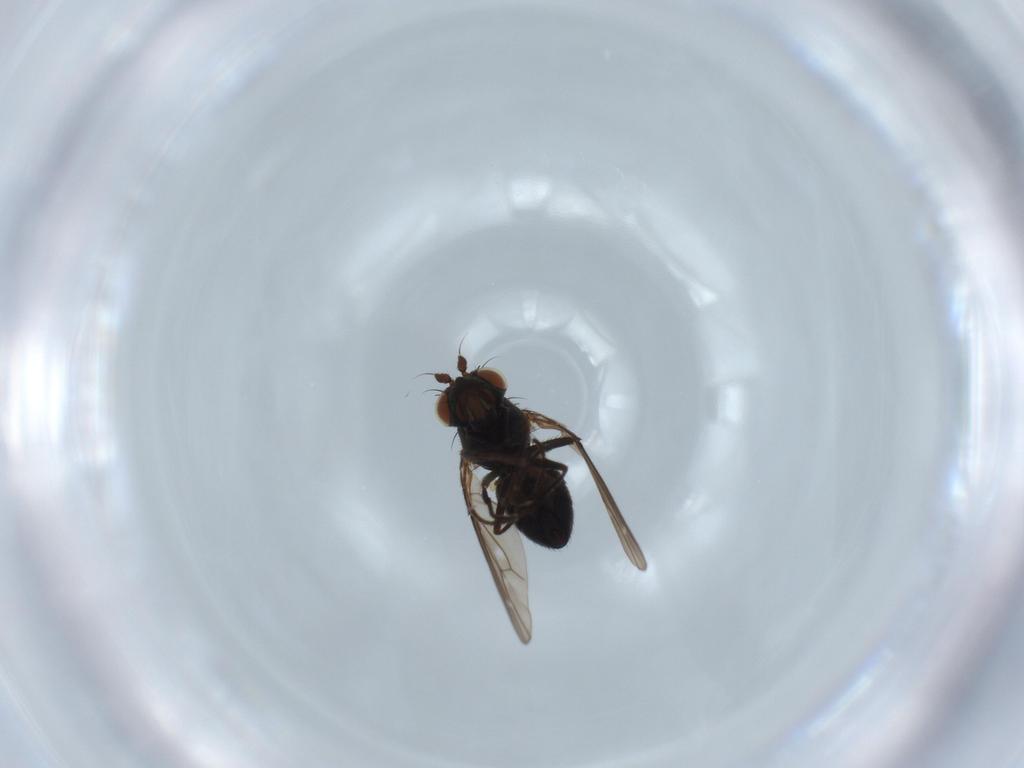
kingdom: Animalia
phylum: Arthropoda
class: Insecta
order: Diptera
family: Ephydridae
